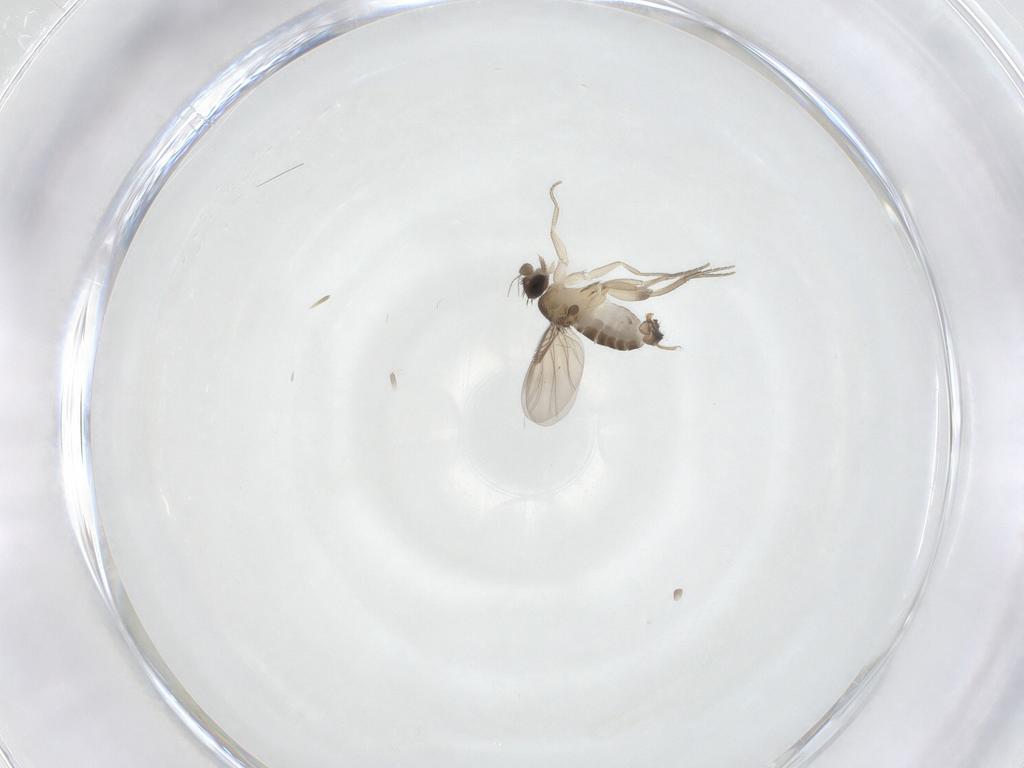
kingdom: Animalia
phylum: Arthropoda
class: Insecta
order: Diptera
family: Phoridae
